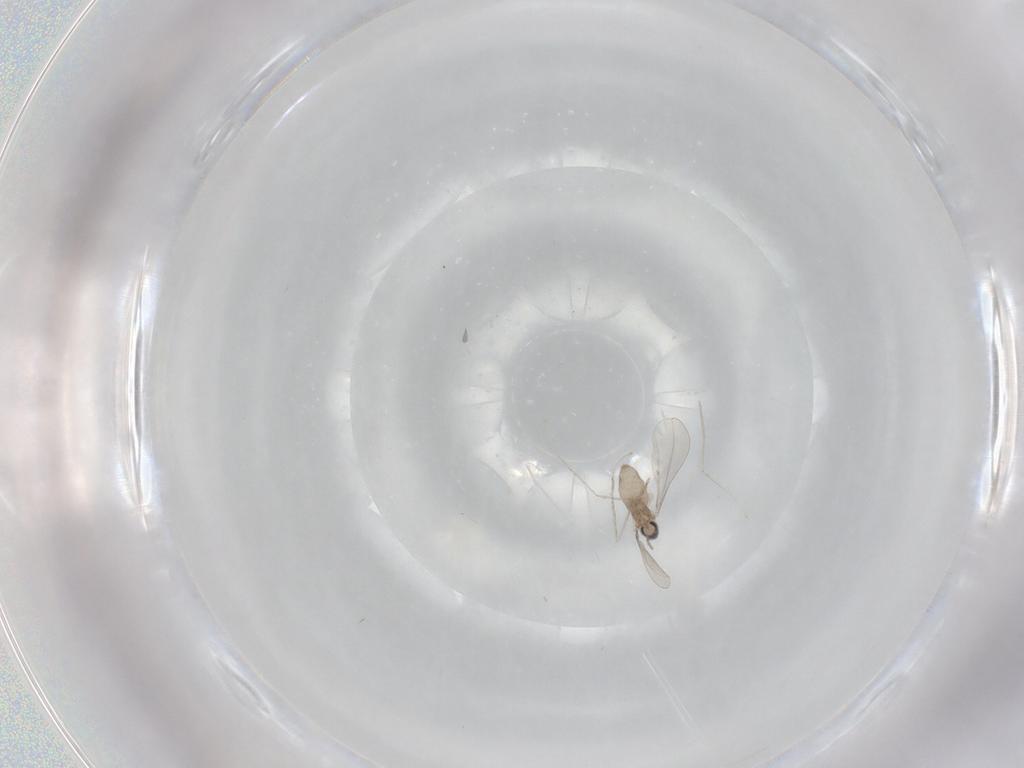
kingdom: Animalia
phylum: Arthropoda
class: Insecta
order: Diptera
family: Cecidomyiidae
